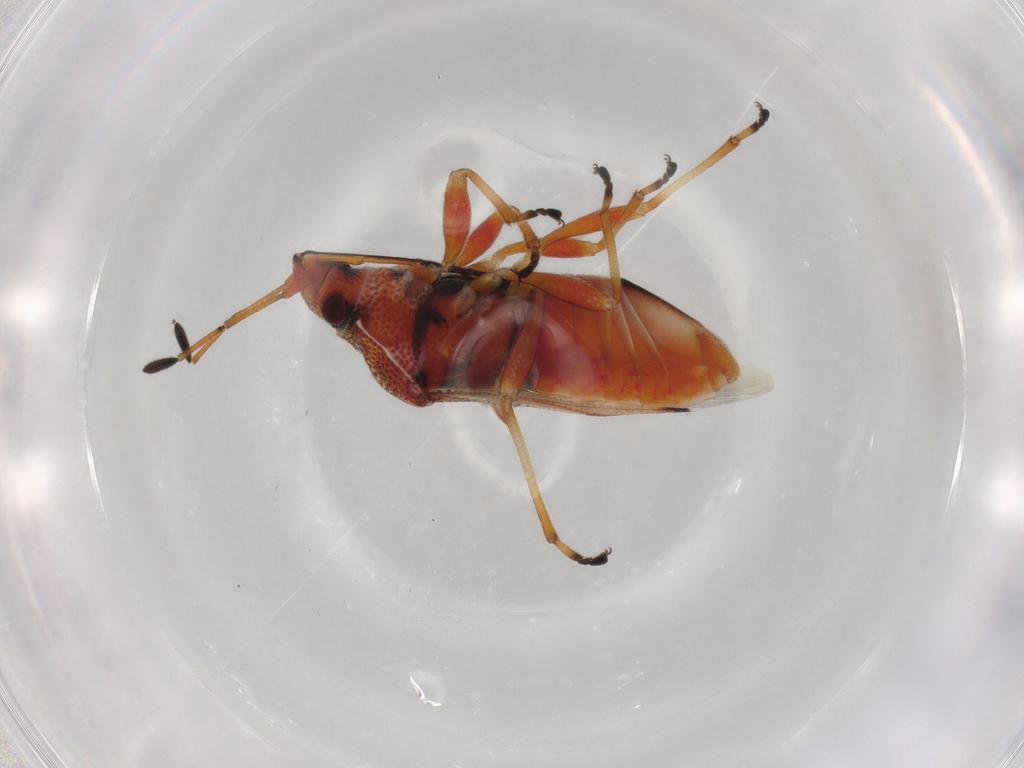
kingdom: Animalia
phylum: Arthropoda
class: Insecta
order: Hemiptera
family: Lygaeidae
